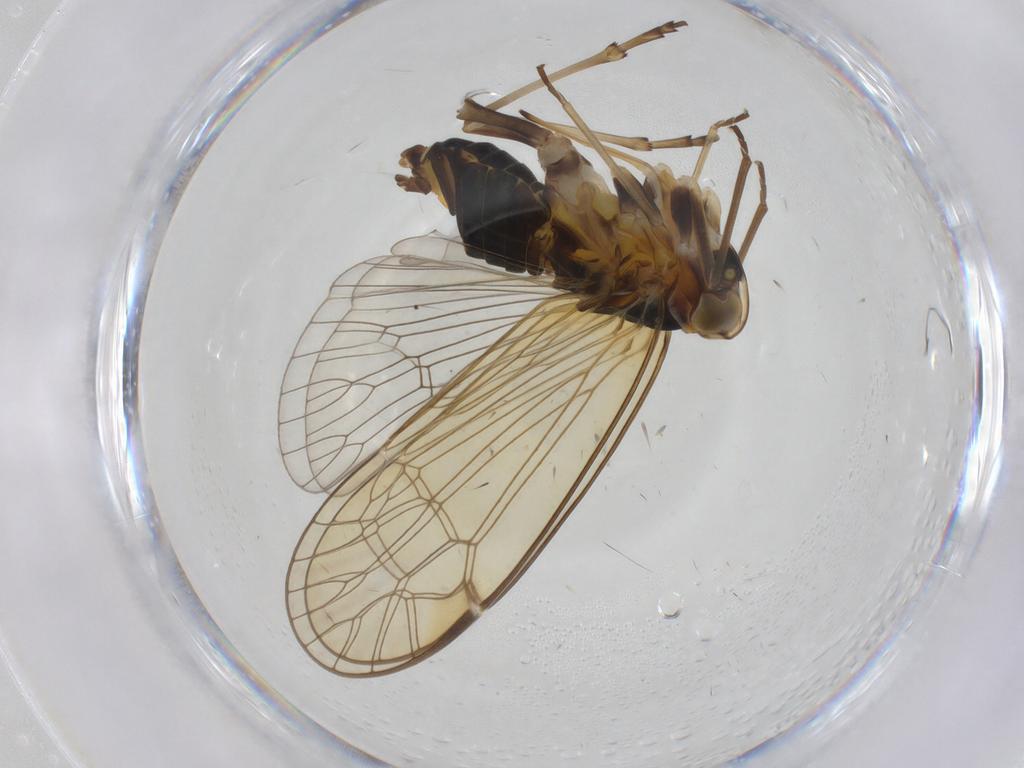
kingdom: Animalia
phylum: Arthropoda
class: Insecta
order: Hemiptera
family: Kinnaridae
